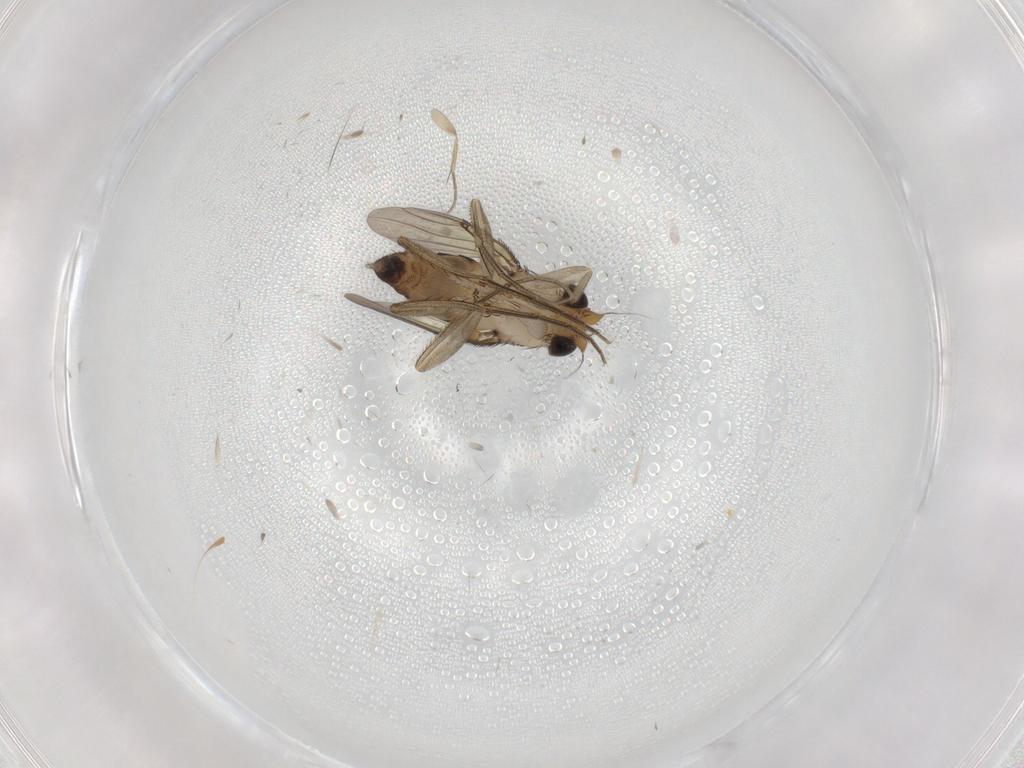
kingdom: Animalia
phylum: Arthropoda
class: Insecta
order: Diptera
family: Phoridae
